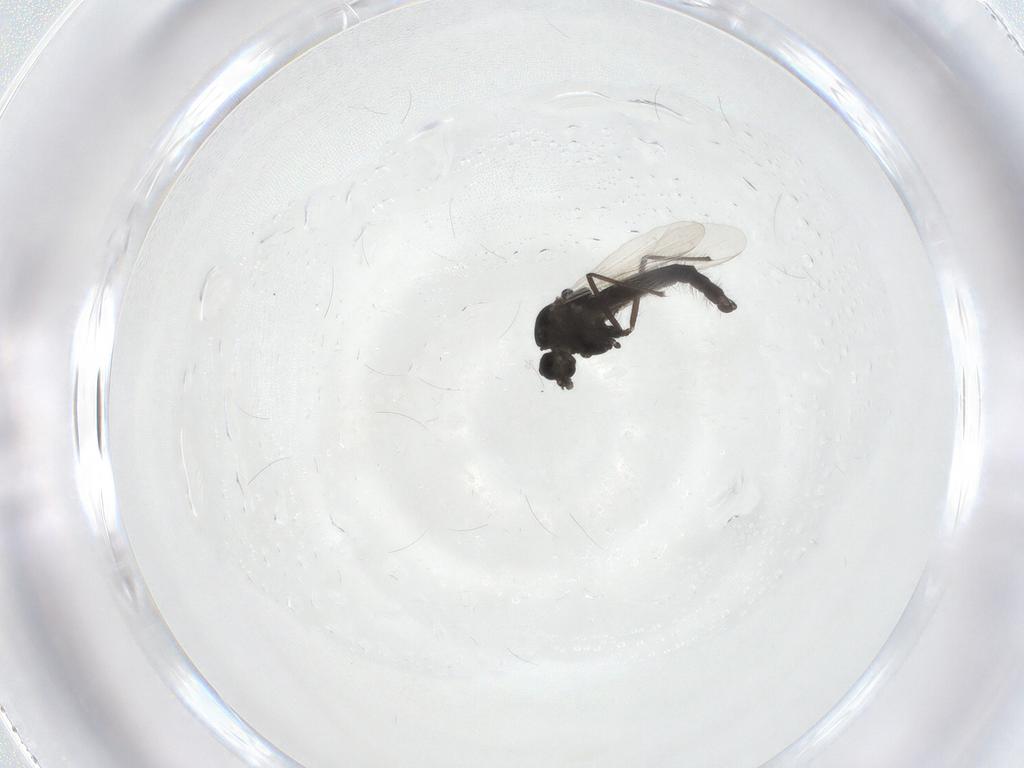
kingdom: Animalia
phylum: Arthropoda
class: Insecta
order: Diptera
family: Chironomidae
